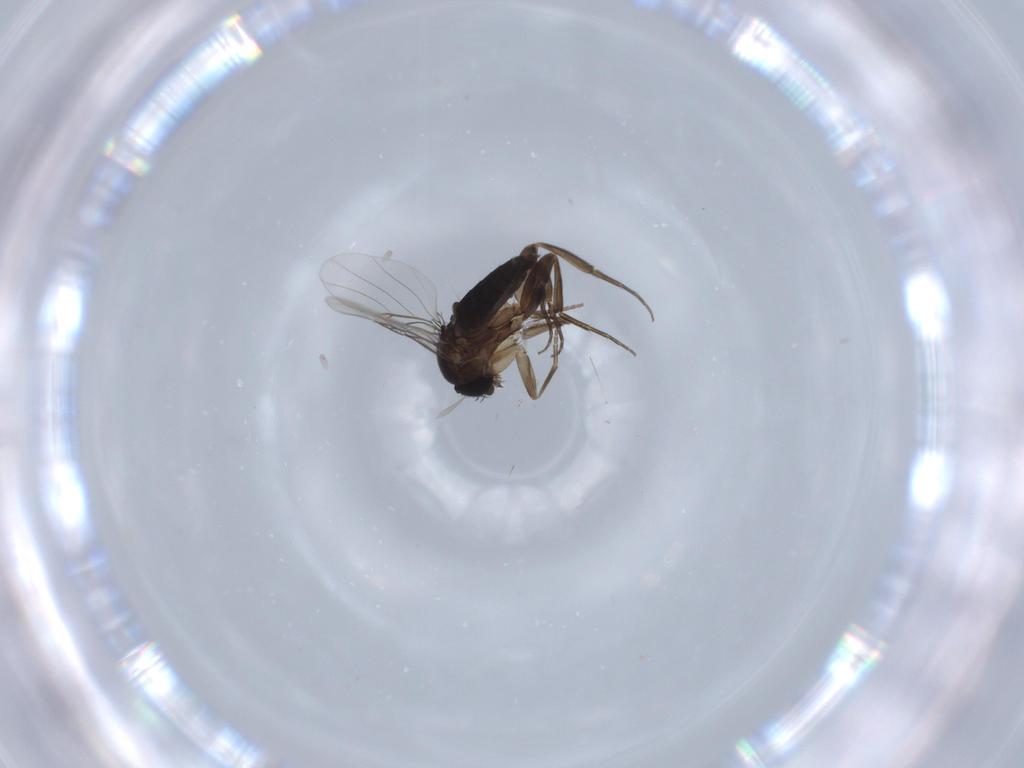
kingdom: Animalia
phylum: Arthropoda
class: Insecta
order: Diptera
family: Phoridae
